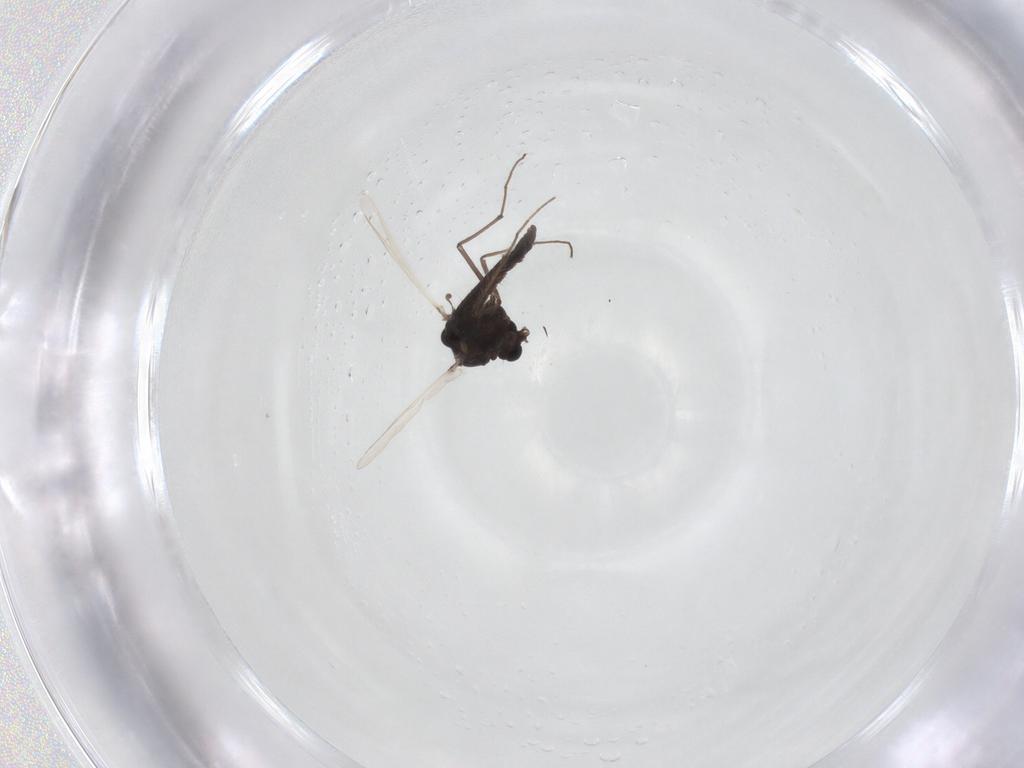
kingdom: Animalia
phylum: Arthropoda
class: Insecta
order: Diptera
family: Chironomidae
